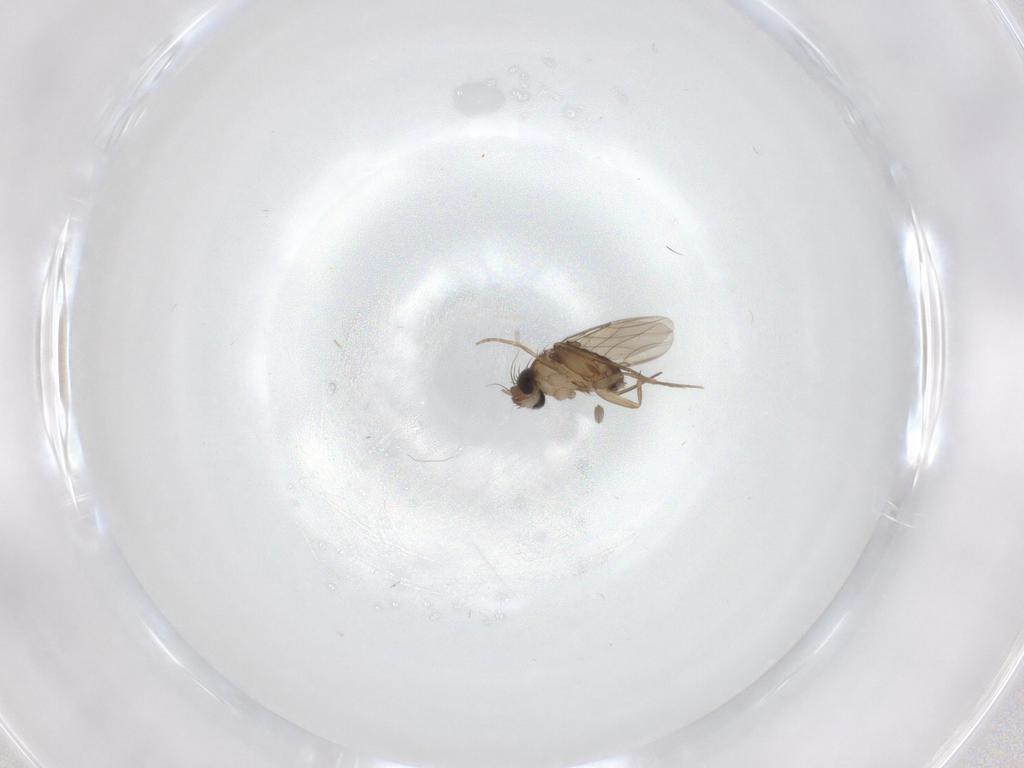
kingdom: Animalia
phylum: Arthropoda
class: Insecta
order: Diptera
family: Phoridae
